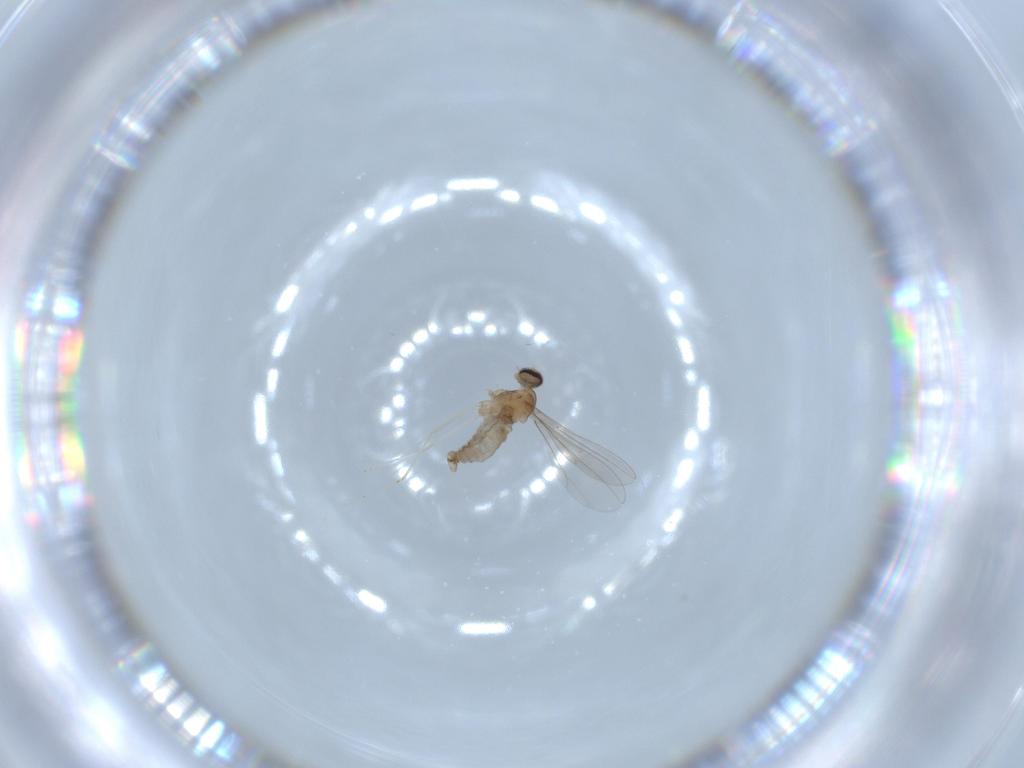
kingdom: Animalia
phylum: Arthropoda
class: Insecta
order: Diptera
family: Cecidomyiidae
